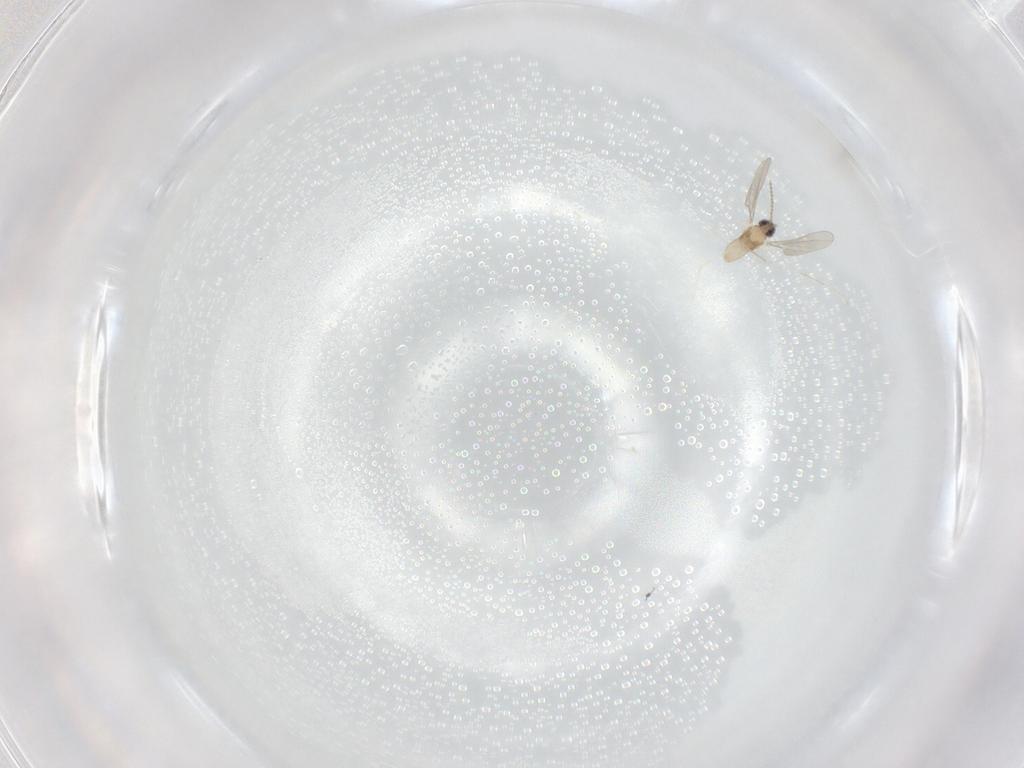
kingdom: Animalia
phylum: Arthropoda
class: Insecta
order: Diptera
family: Cecidomyiidae
